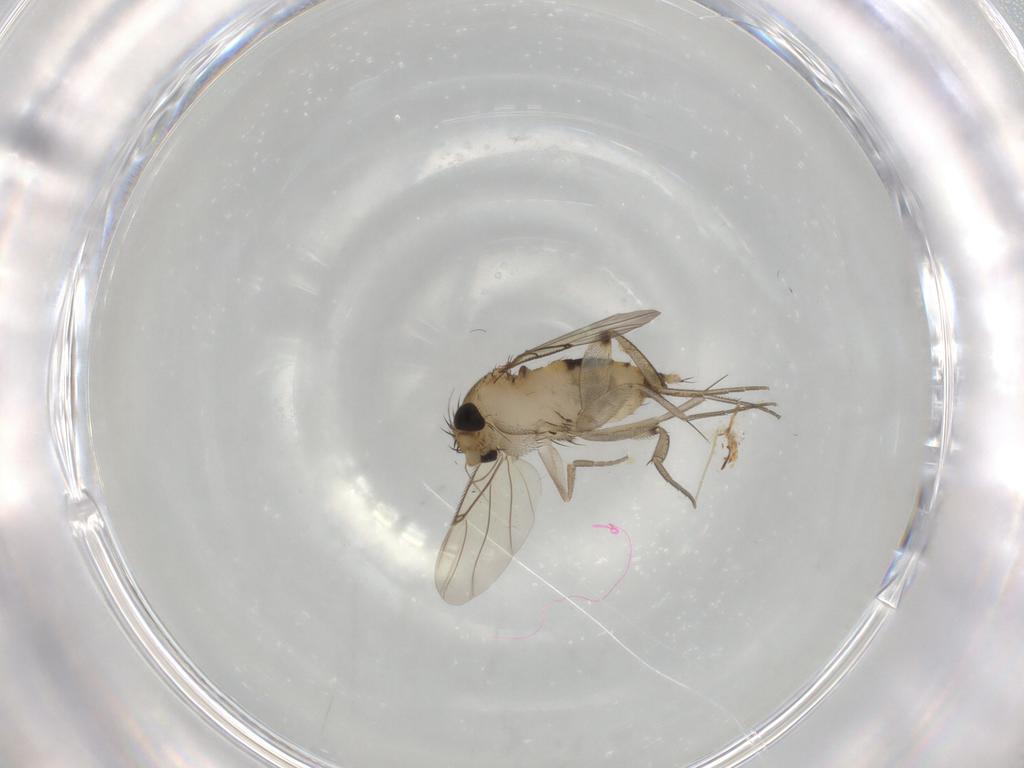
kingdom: Animalia
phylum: Arthropoda
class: Insecta
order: Diptera
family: Phoridae
